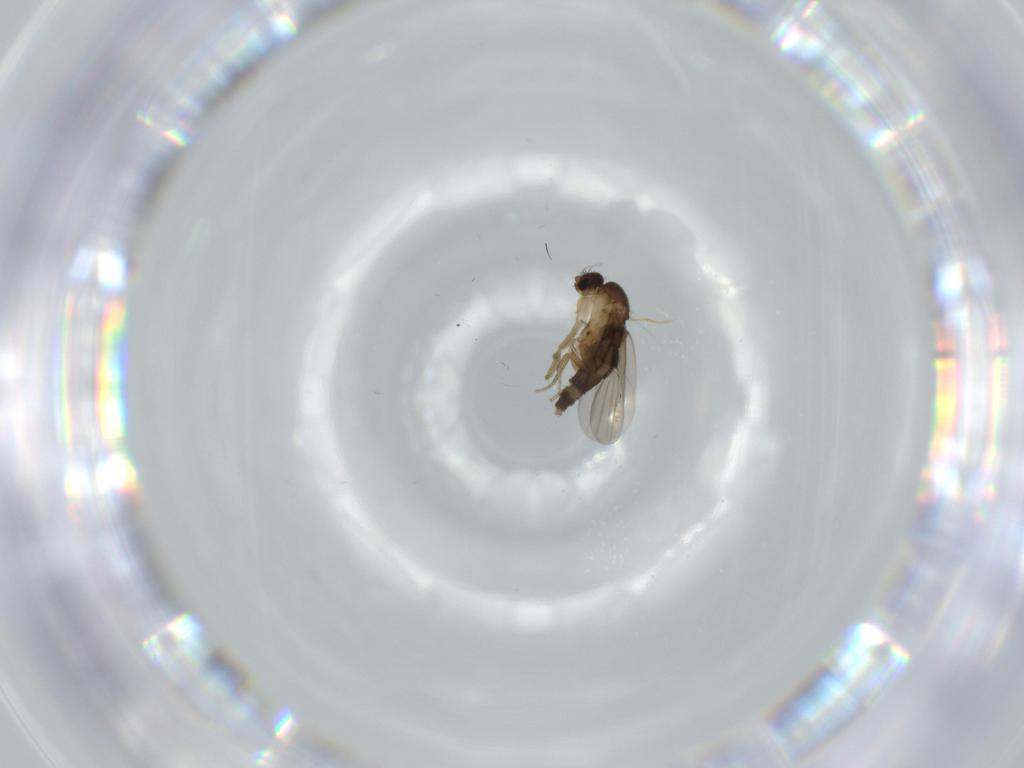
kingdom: Animalia
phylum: Arthropoda
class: Insecta
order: Diptera
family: Phoridae
